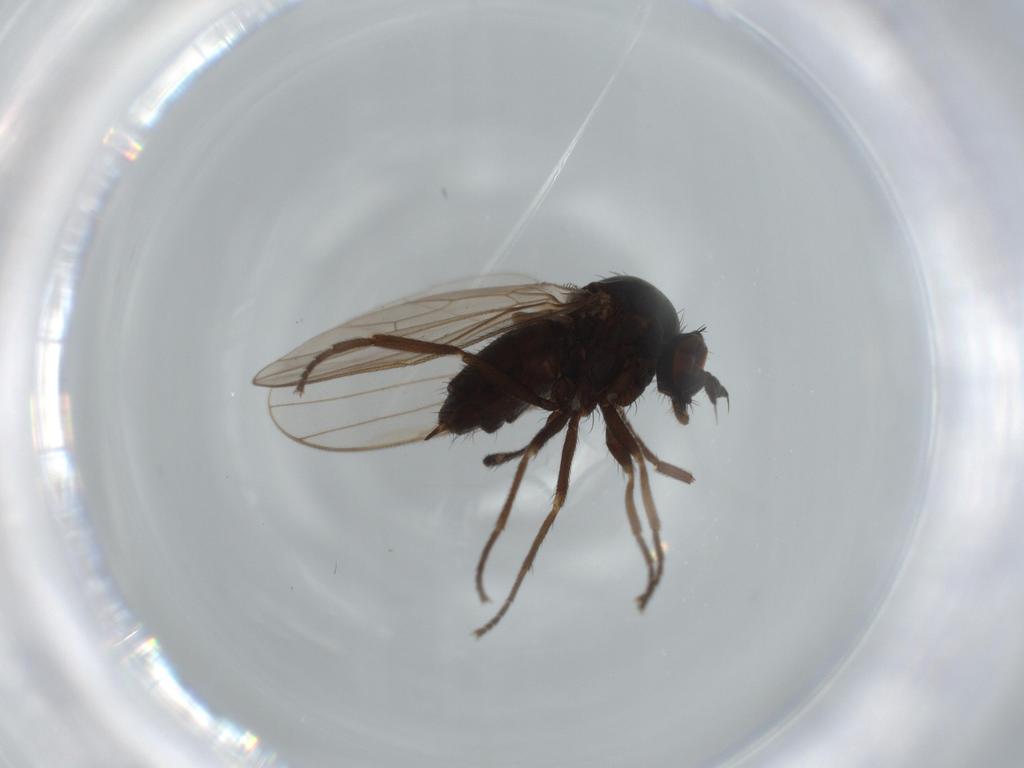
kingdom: Animalia
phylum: Arthropoda
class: Insecta
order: Diptera
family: Dolichopodidae
